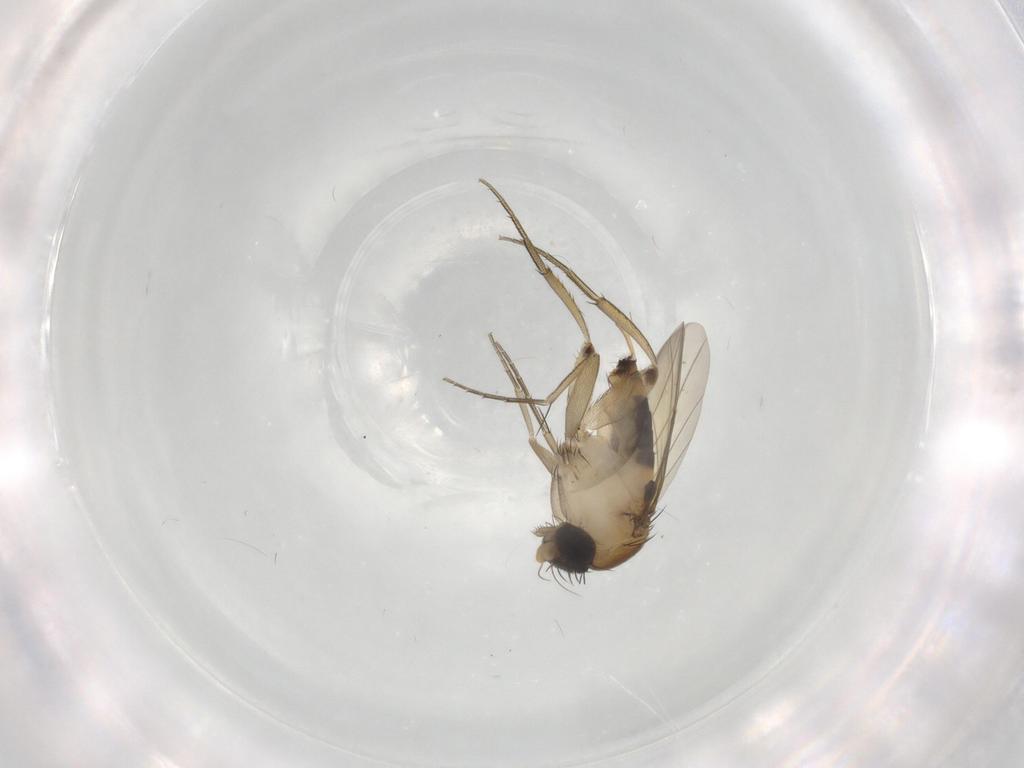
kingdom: Animalia
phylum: Arthropoda
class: Insecta
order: Diptera
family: Phoridae
